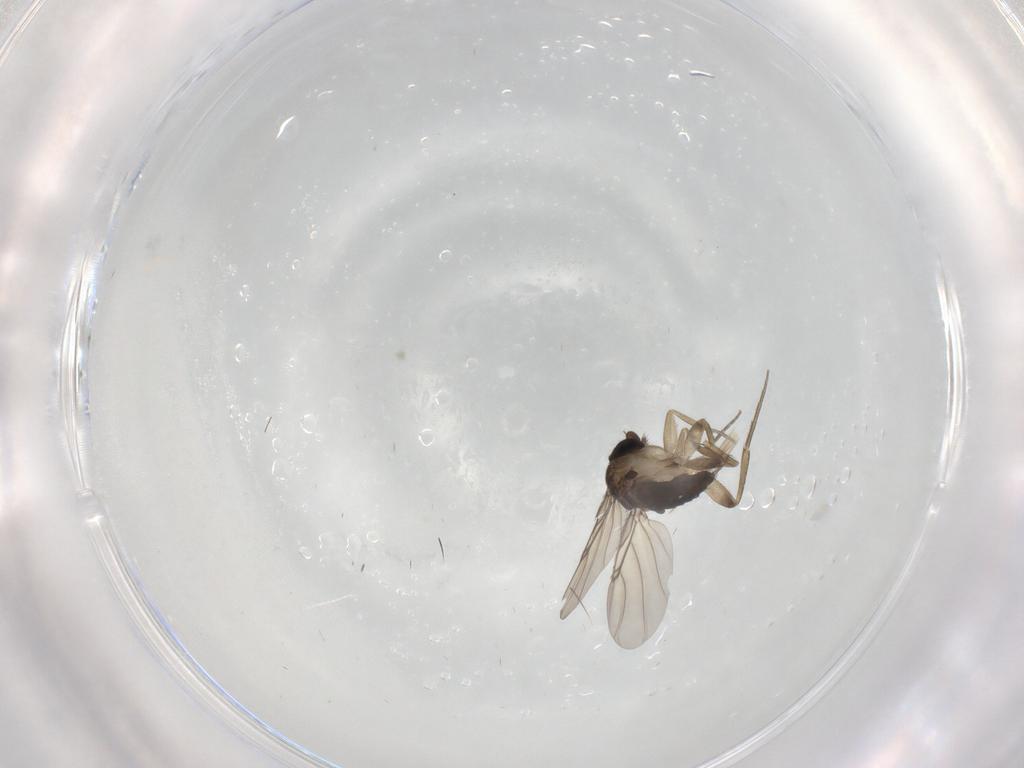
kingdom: Animalia
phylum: Arthropoda
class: Insecta
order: Diptera
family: Phoridae
